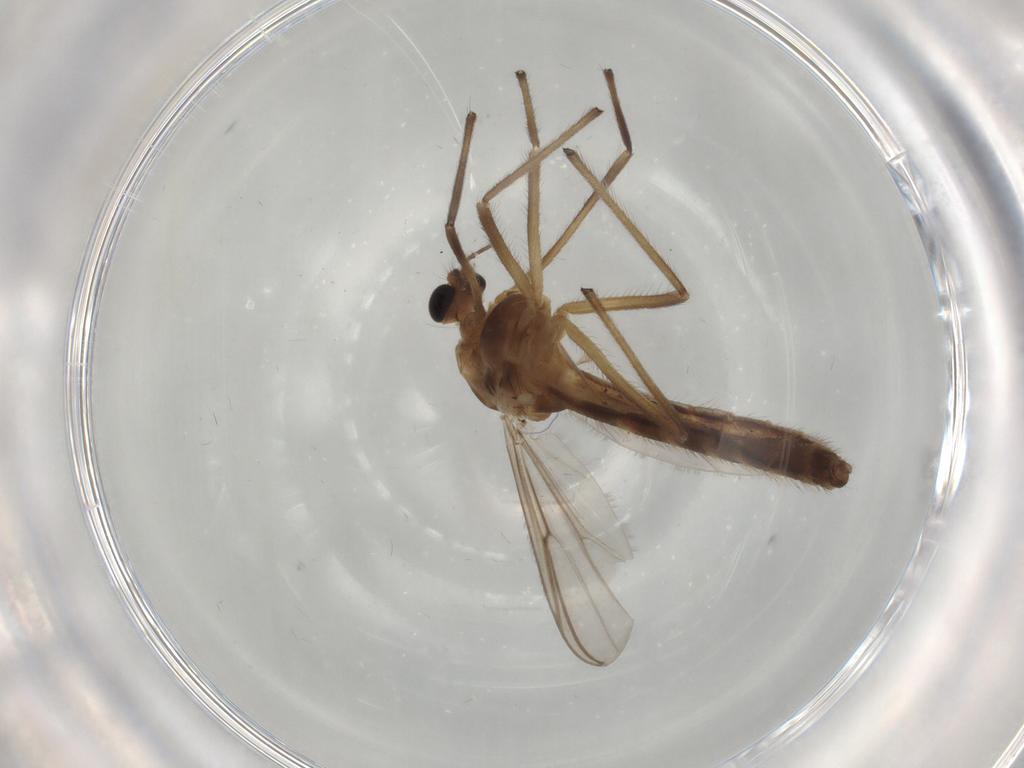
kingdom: Animalia
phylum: Arthropoda
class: Insecta
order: Diptera
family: Chironomidae
